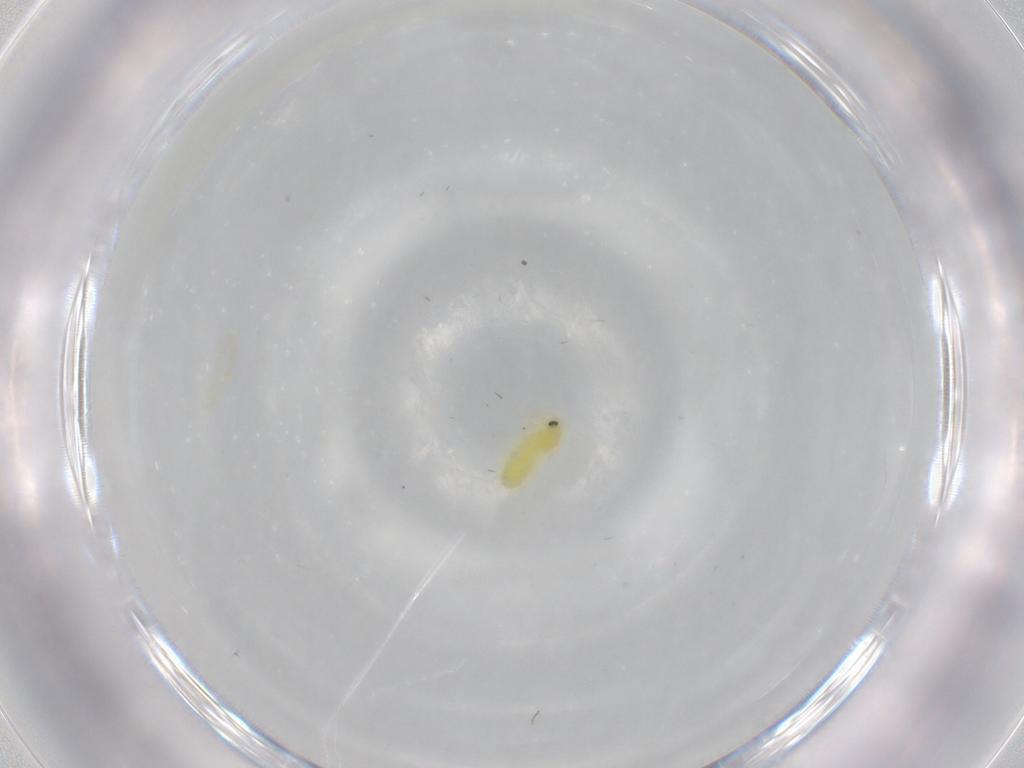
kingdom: Animalia
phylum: Arthropoda
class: Insecta
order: Hemiptera
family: Aleyrodidae
